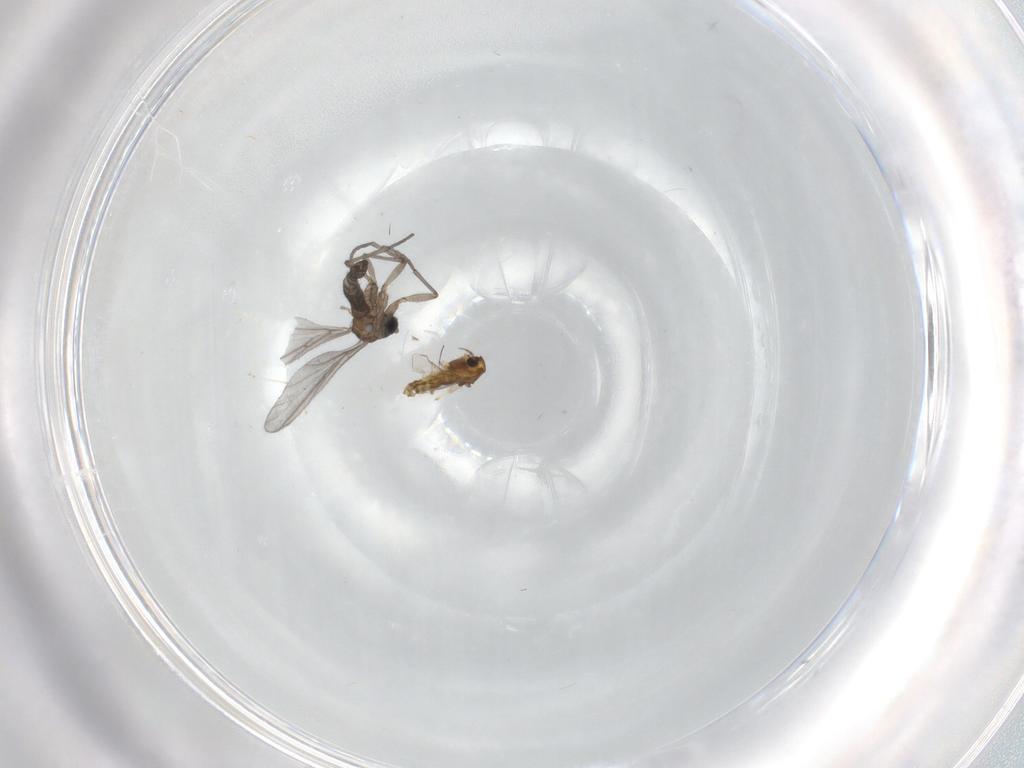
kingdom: Animalia
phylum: Arthropoda
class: Insecta
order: Diptera
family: Sciaridae
